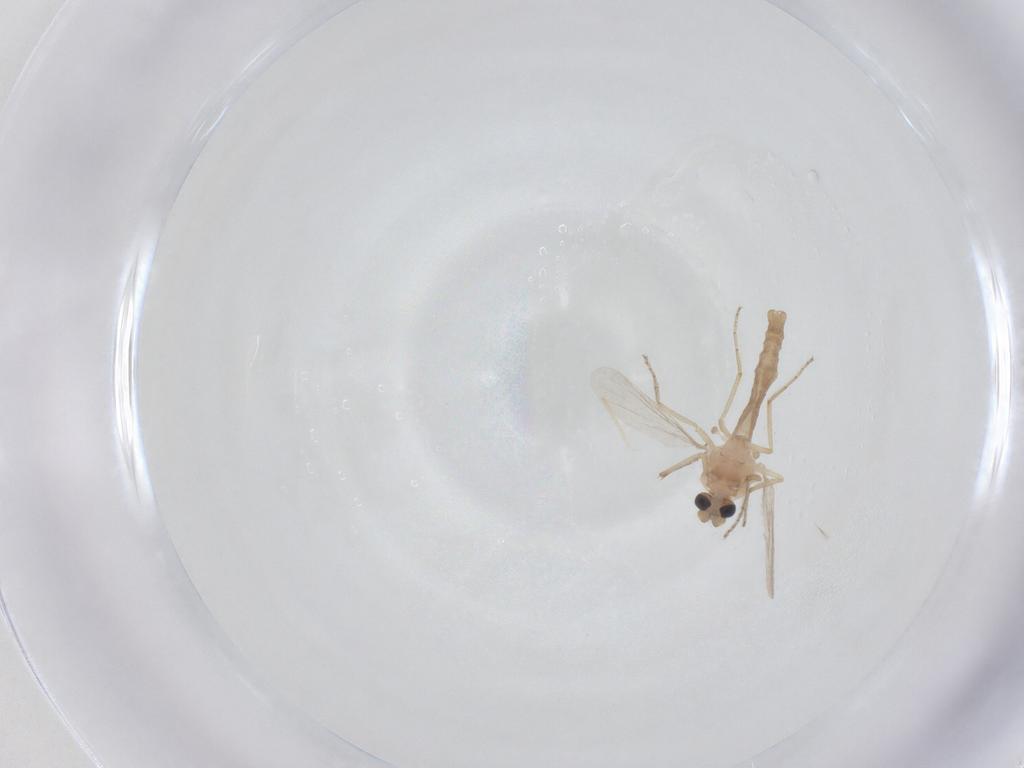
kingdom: Animalia
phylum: Arthropoda
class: Insecta
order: Diptera
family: Ceratopogonidae
